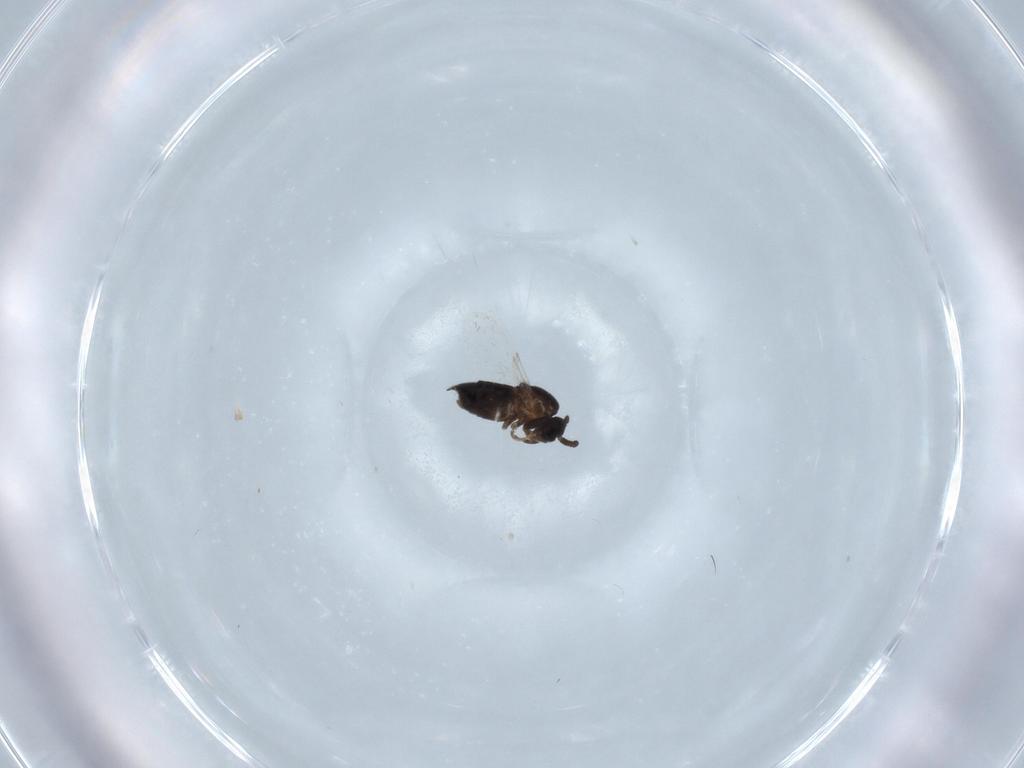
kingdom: Animalia
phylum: Arthropoda
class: Insecta
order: Diptera
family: Scatopsidae
